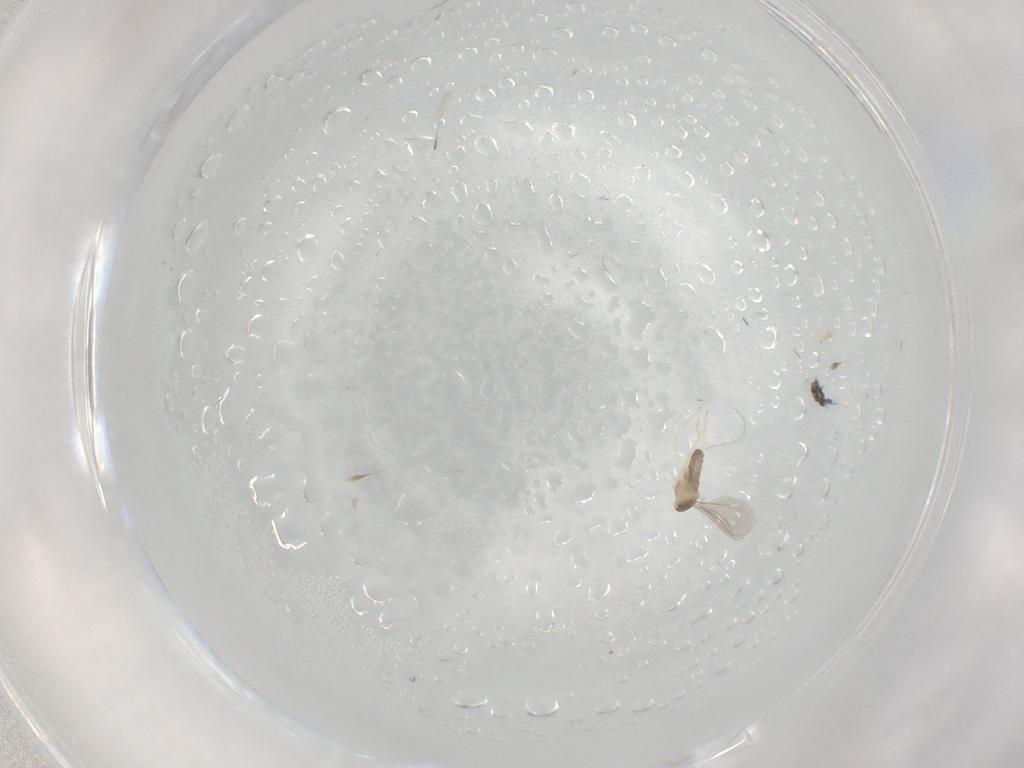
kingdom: Animalia
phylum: Arthropoda
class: Insecta
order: Diptera
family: Cecidomyiidae
